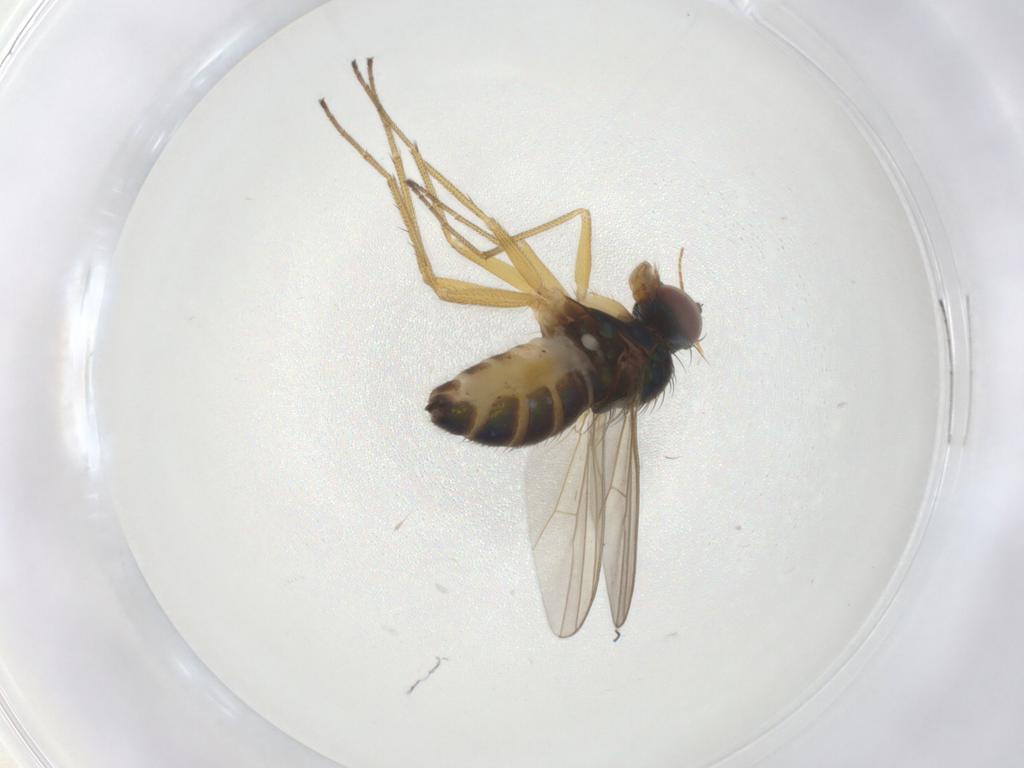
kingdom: Animalia
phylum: Arthropoda
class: Insecta
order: Diptera
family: Dolichopodidae
